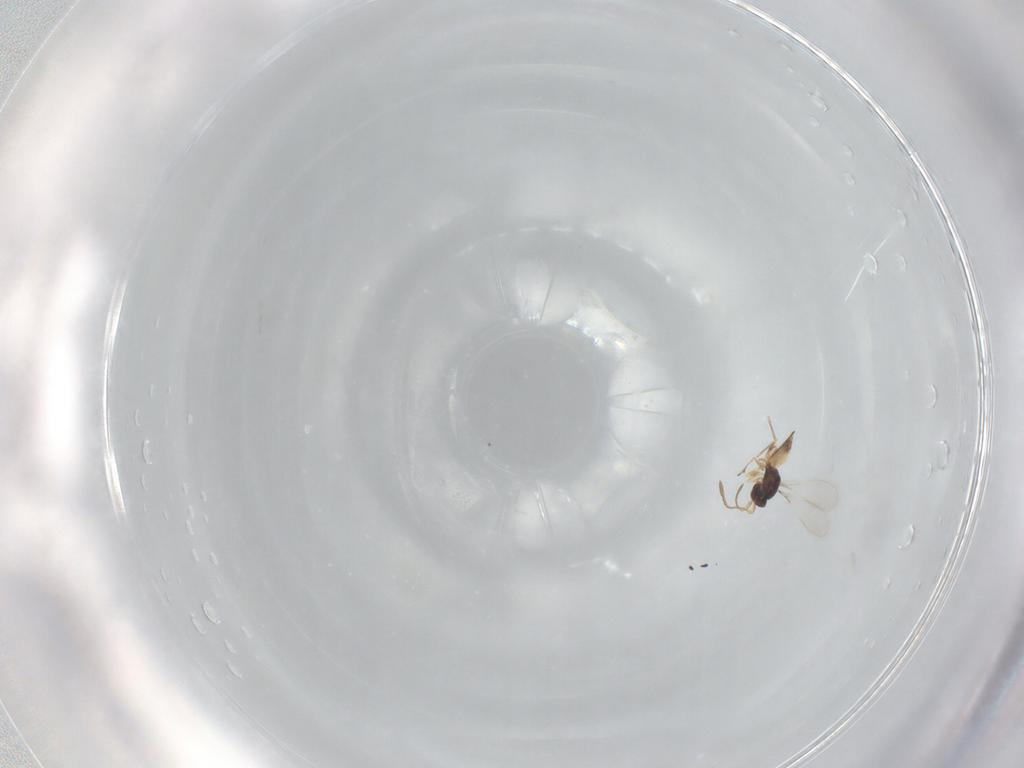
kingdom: Animalia
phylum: Arthropoda
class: Insecta
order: Hymenoptera
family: Mymaridae
